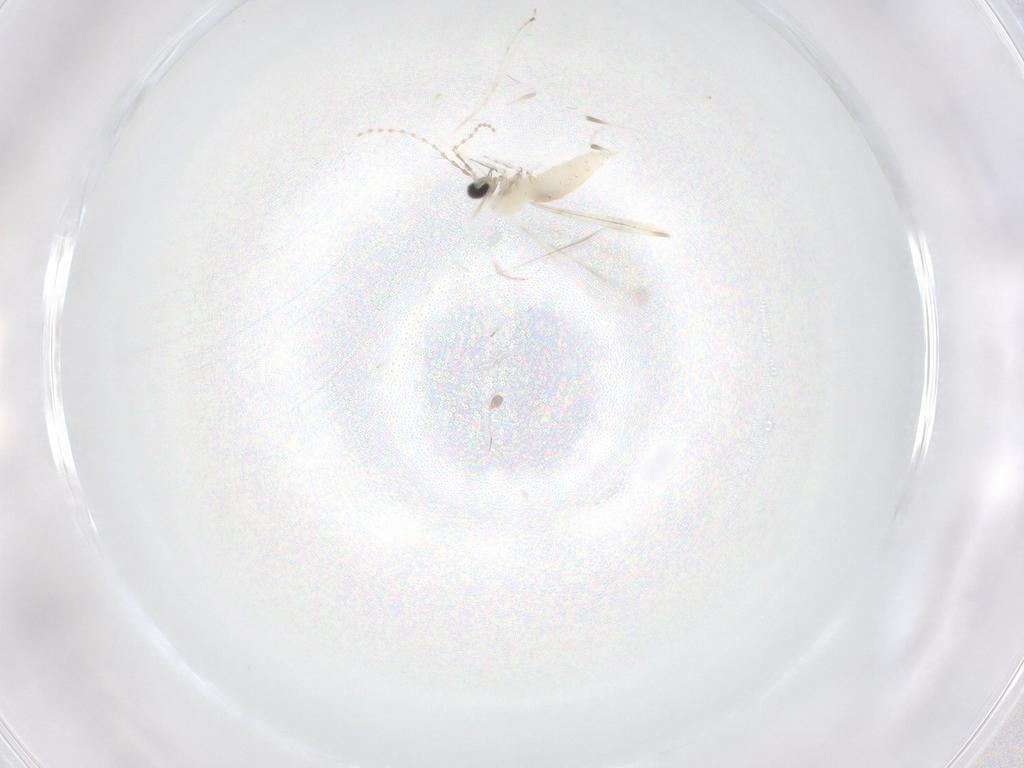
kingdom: Animalia
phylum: Arthropoda
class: Insecta
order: Diptera
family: Cecidomyiidae
